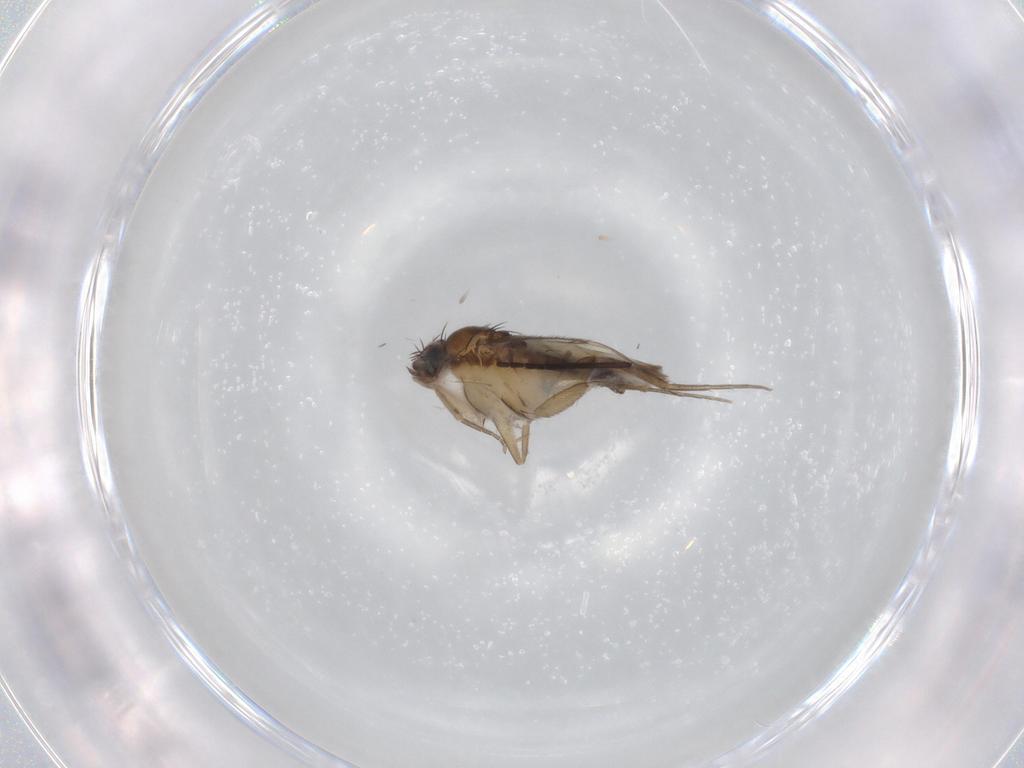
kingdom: Animalia
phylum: Arthropoda
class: Insecta
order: Diptera
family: Phoridae
